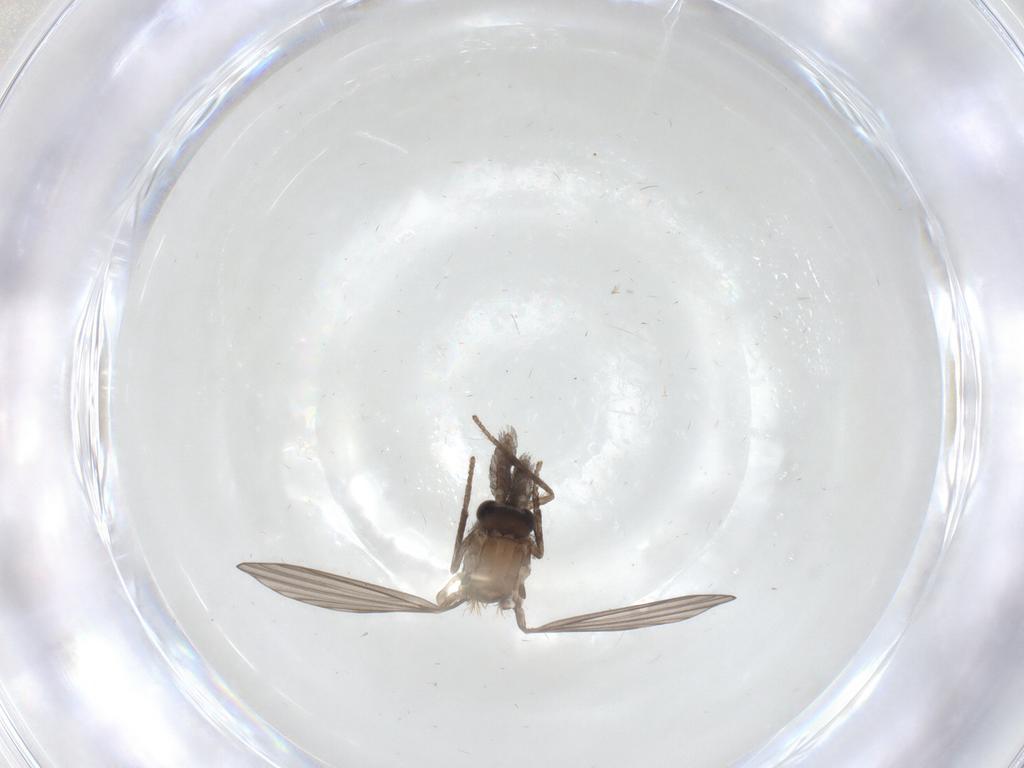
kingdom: Animalia
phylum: Arthropoda
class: Insecta
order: Diptera
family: Psychodidae
